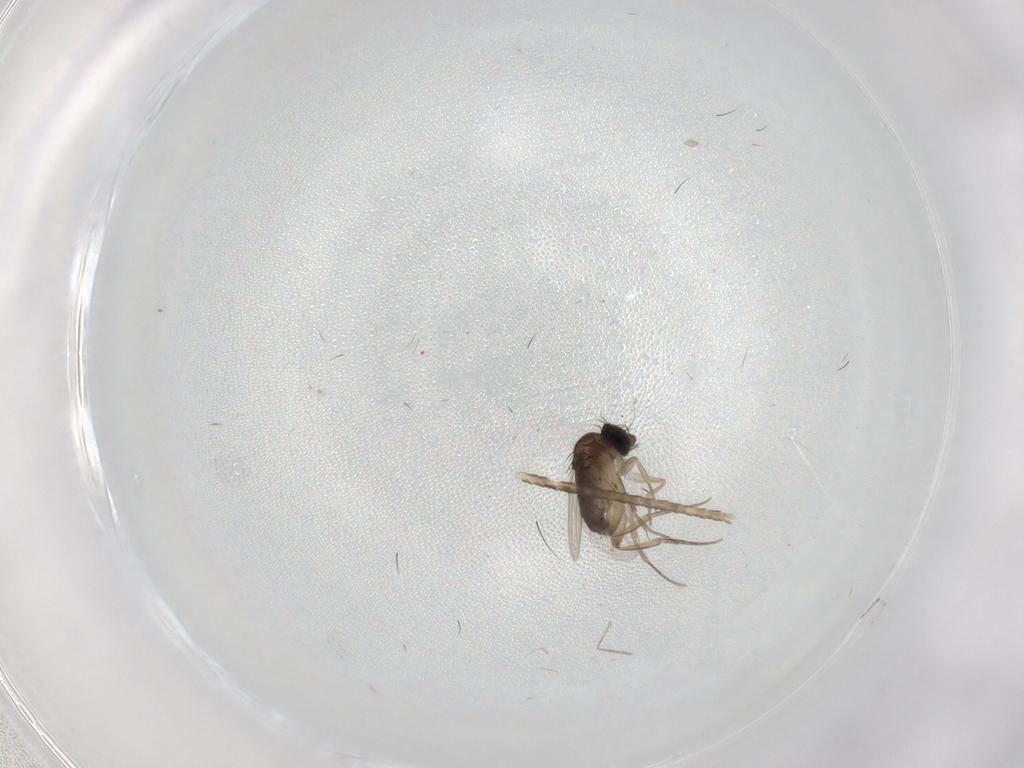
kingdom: Animalia
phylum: Arthropoda
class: Insecta
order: Diptera
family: Phoridae
